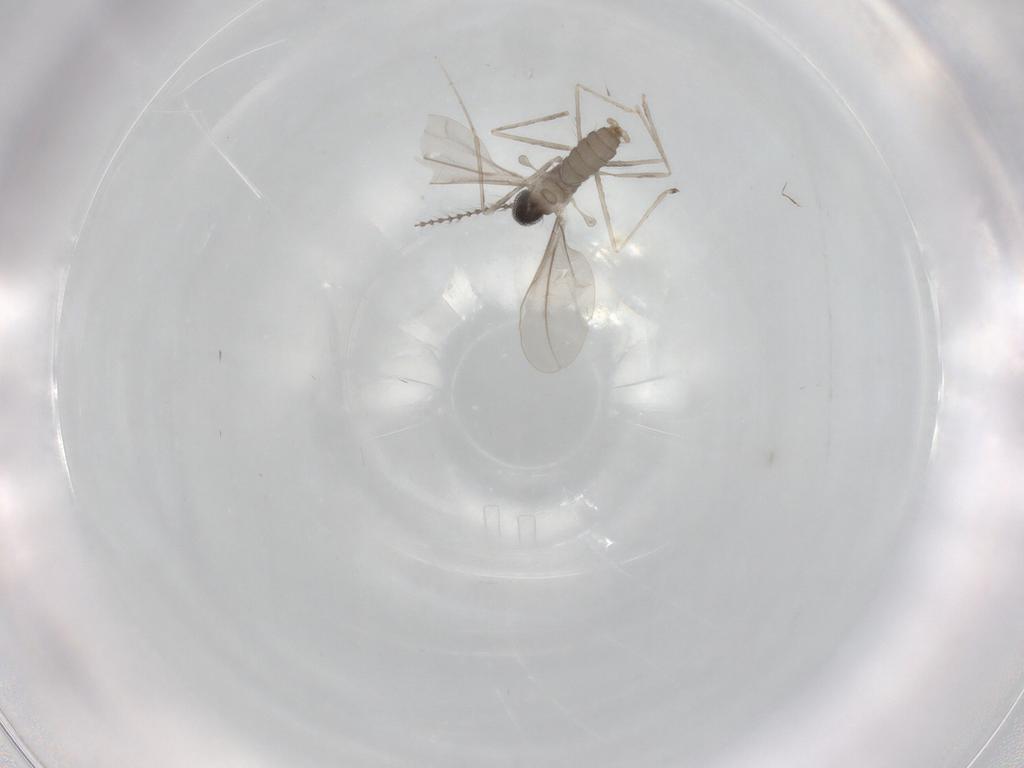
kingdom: Animalia
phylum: Arthropoda
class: Insecta
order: Diptera
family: Cecidomyiidae
